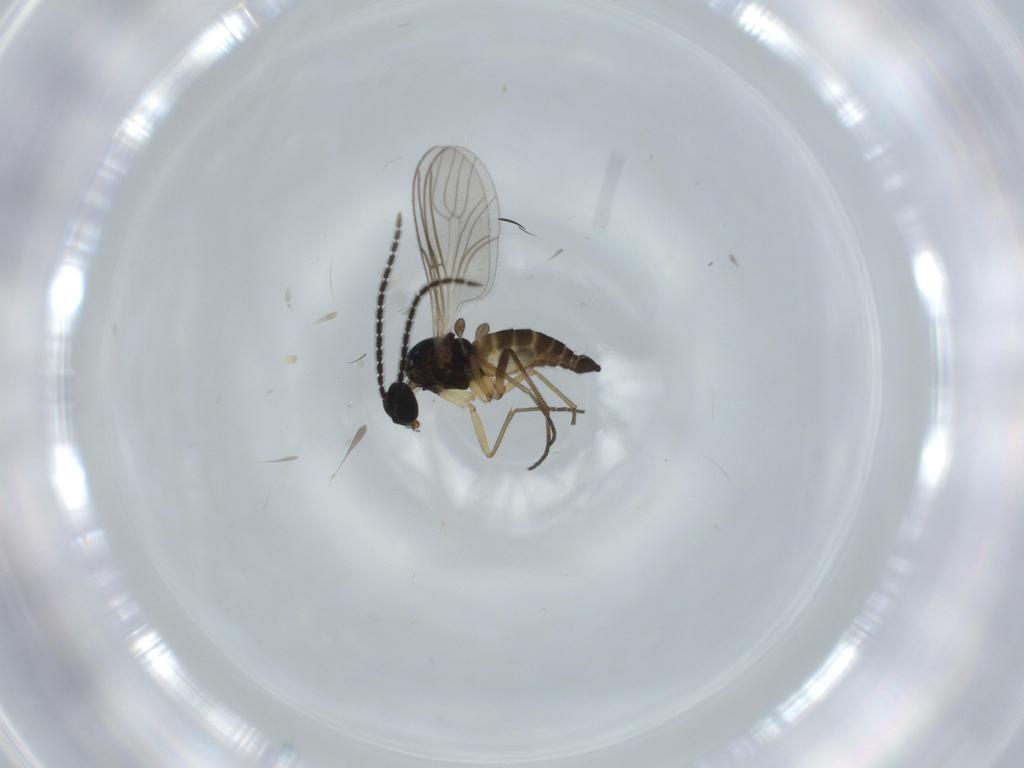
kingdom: Animalia
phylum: Arthropoda
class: Insecta
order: Diptera
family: Sciaridae
